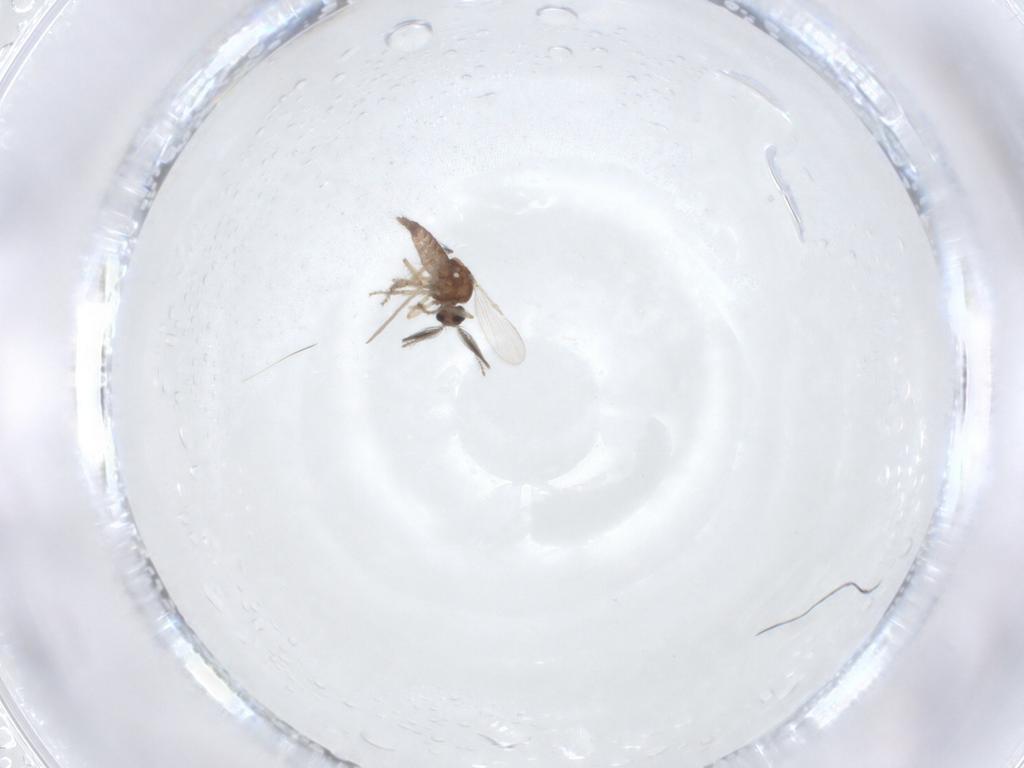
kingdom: Animalia
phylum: Arthropoda
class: Insecta
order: Diptera
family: Ceratopogonidae
